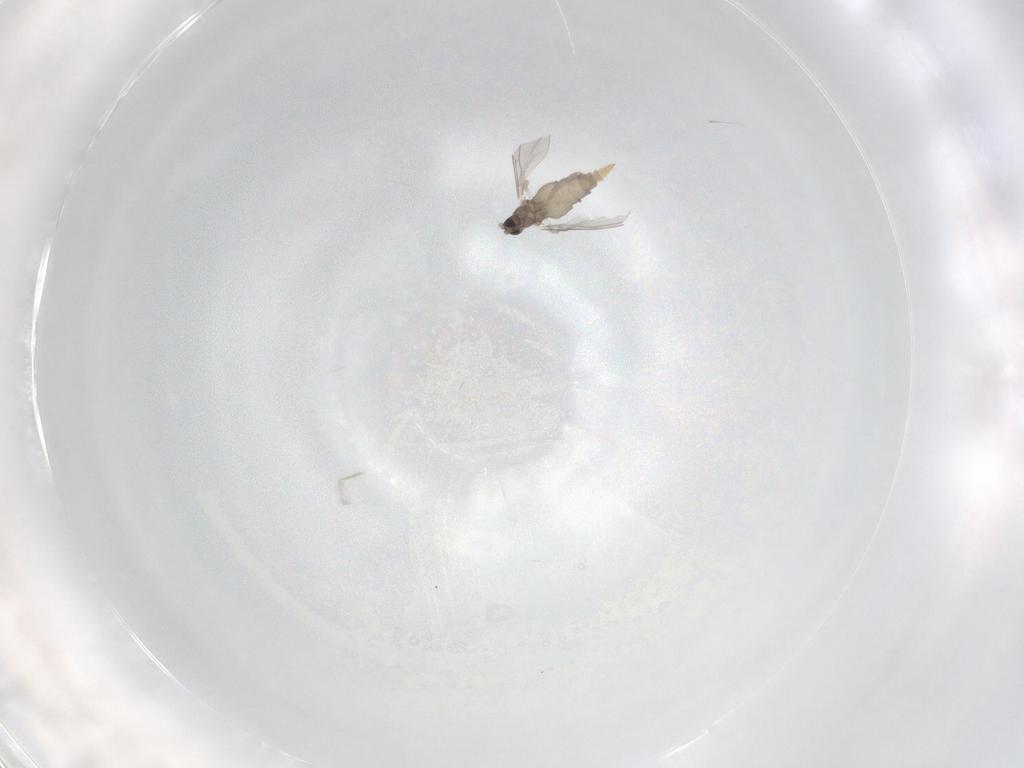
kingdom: Animalia
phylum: Arthropoda
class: Insecta
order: Diptera
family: Cecidomyiidae
